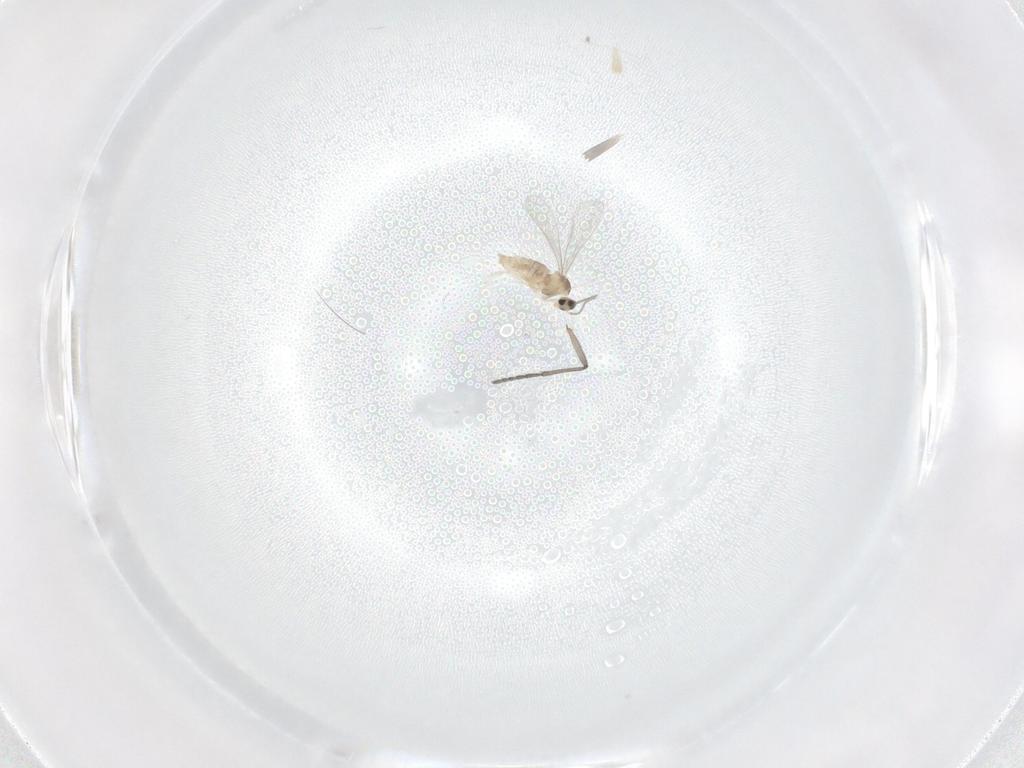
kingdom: Animalia
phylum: Arthropoda
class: Insecta
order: Diptera
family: Cecidomyiidae
